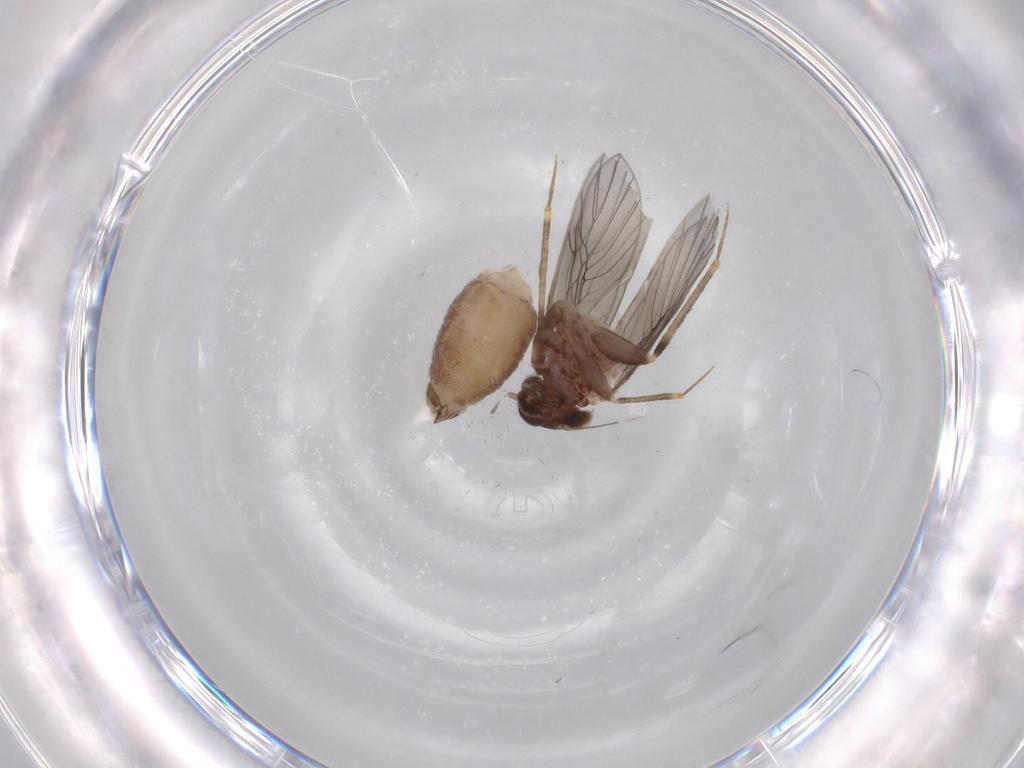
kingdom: Animalia
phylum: Arthropoda
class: Insecta
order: Psocodea
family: Lepidopsocidae
